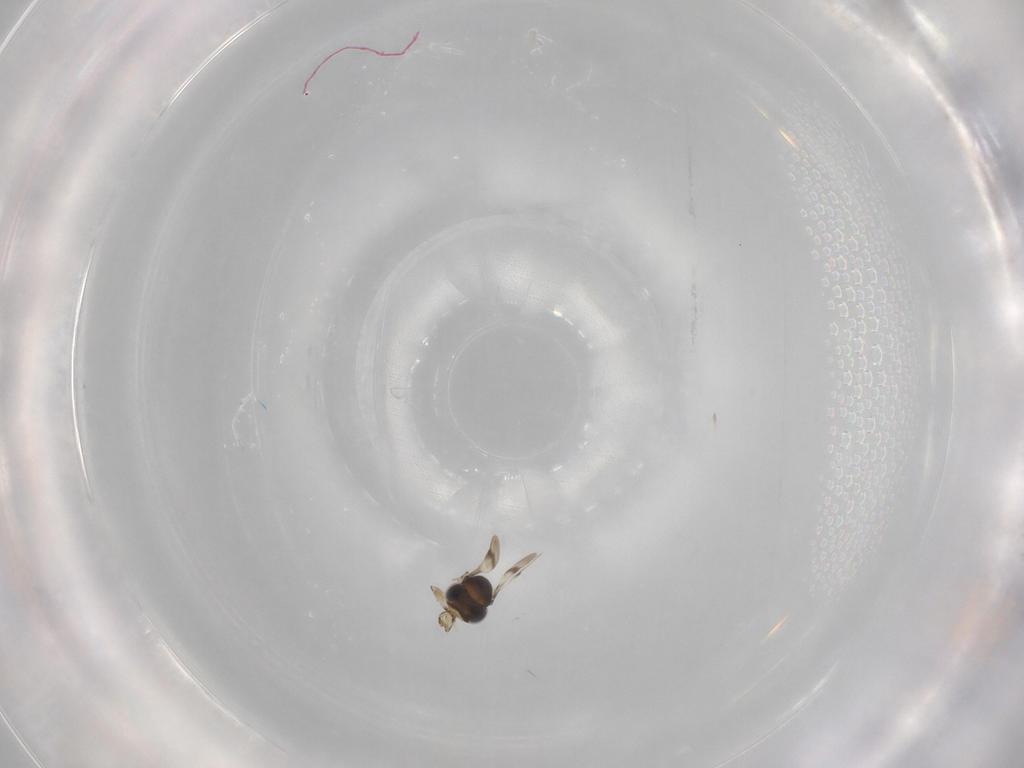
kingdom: Animalia
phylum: Arthropoda
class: Insecta
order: Hymenoptera
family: Scelionidae
